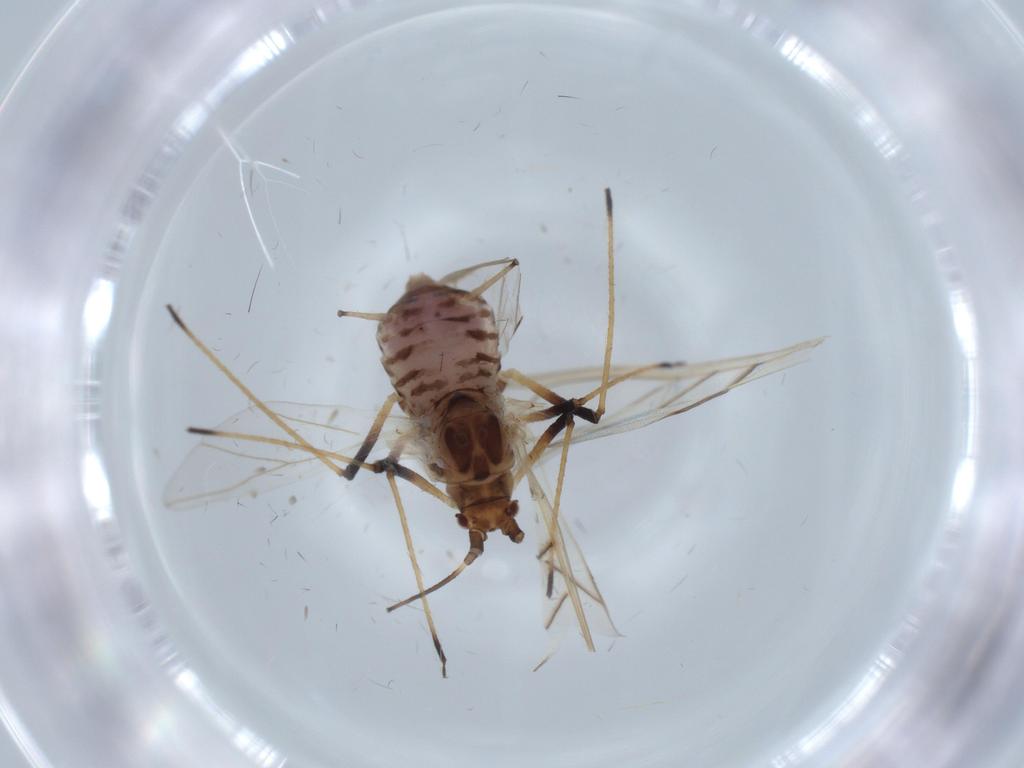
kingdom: Animalia
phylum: Arthropoda
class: Insecta
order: Hemiptera
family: Aphididae
